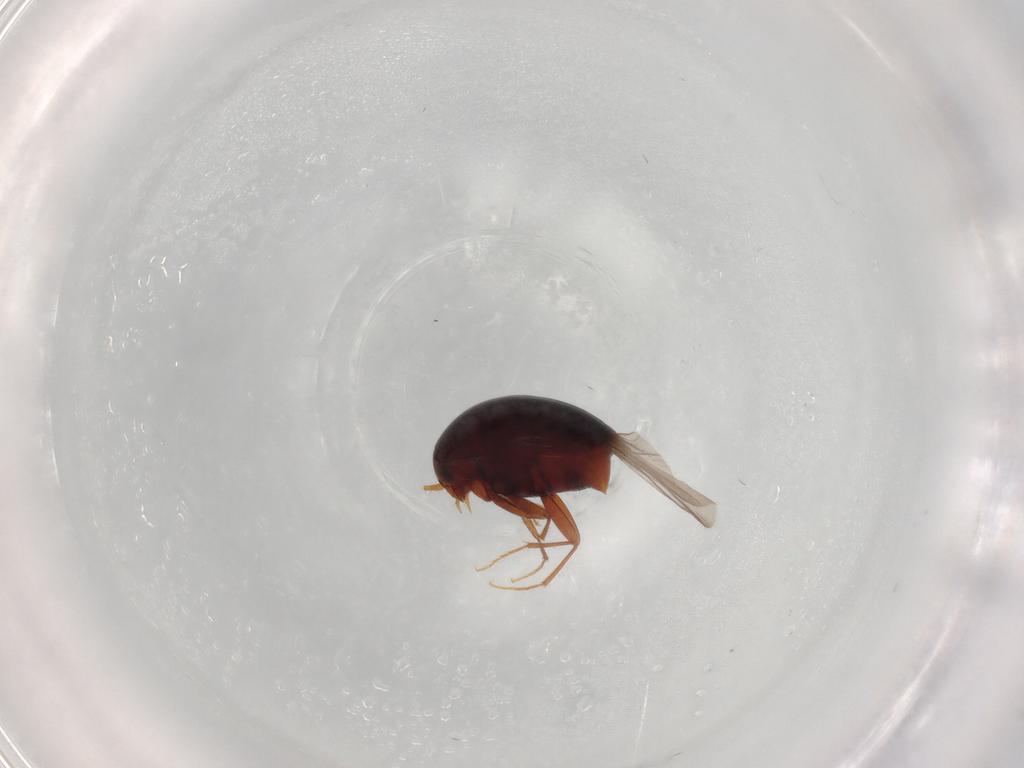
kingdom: Animalia
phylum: Arthropoda
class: Insecta
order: Coleoptera
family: Staphylinidae
